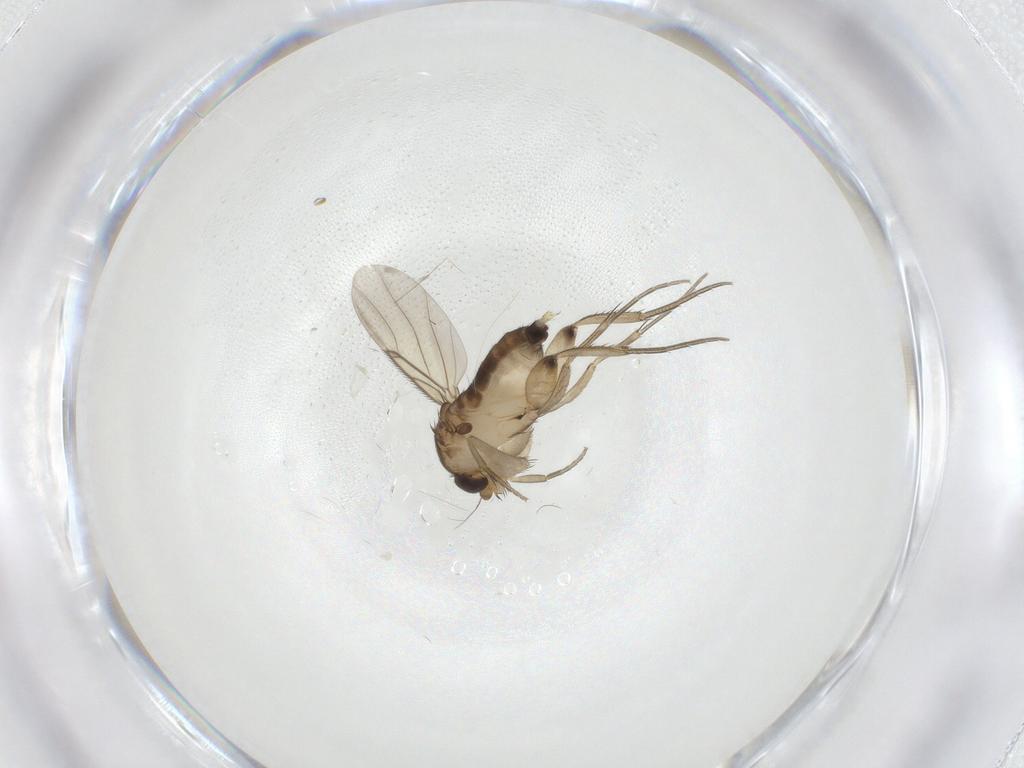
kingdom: Animalia
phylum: Arthropoda
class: Insecta
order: Diptera
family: Phoridae
